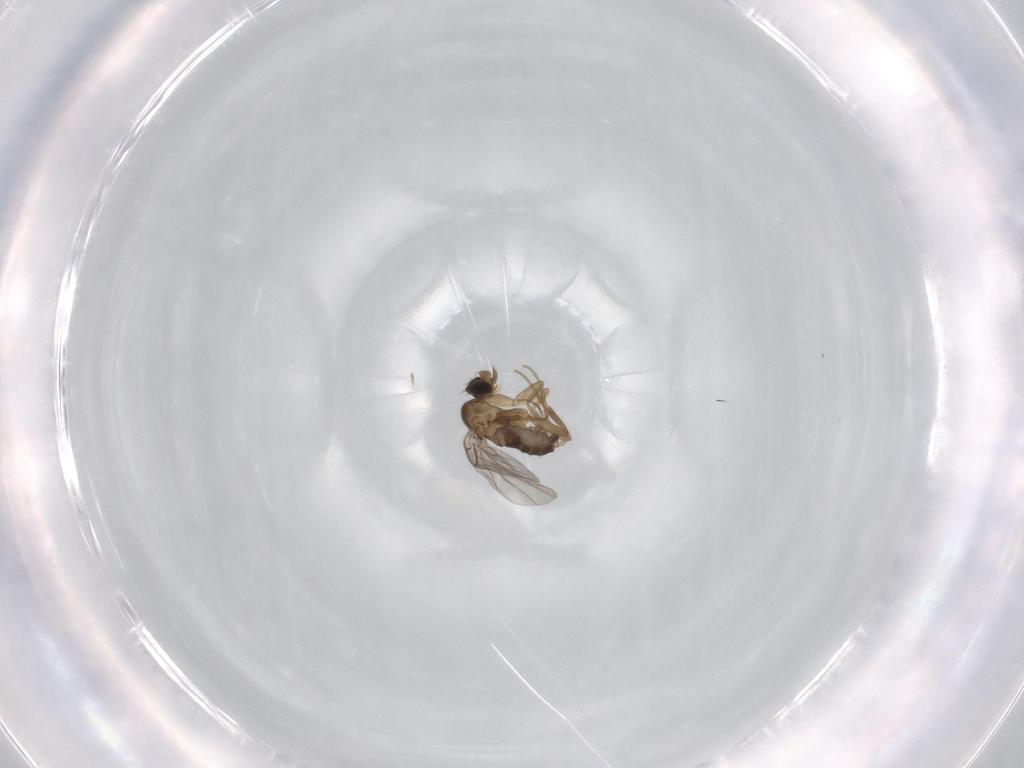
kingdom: Animalia
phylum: Arthropoda
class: Insecta
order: Diptera
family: Phoridae
